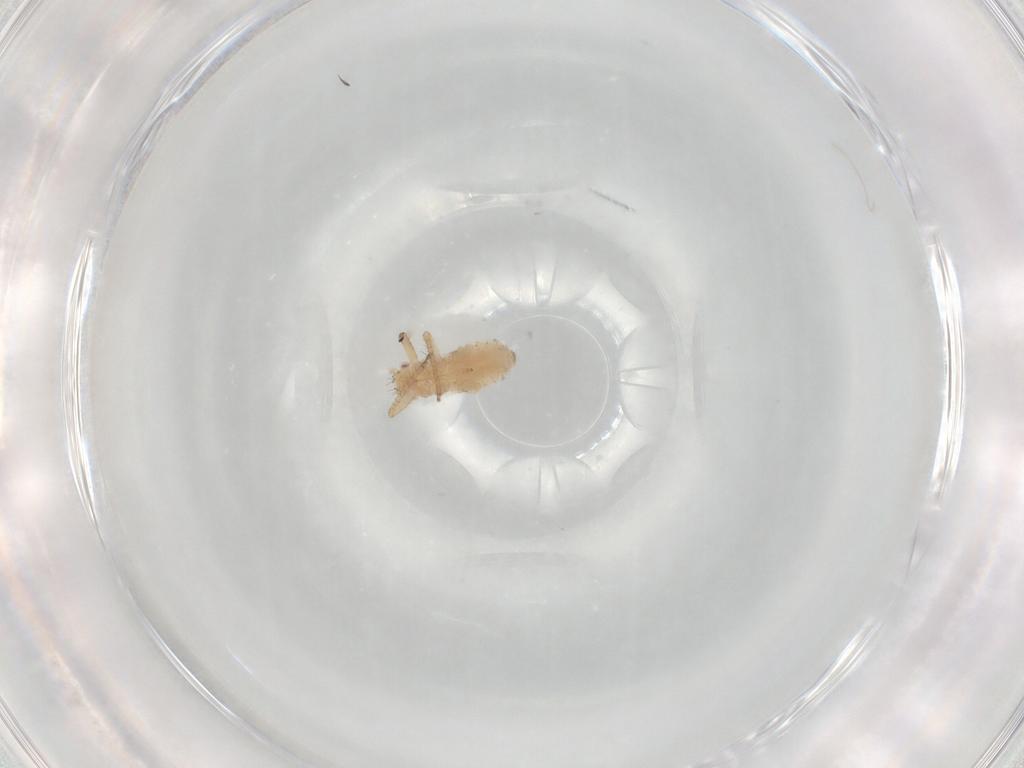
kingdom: Animalia
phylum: Arthropoda
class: Insecta
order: Hemiptera
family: Aphididae
